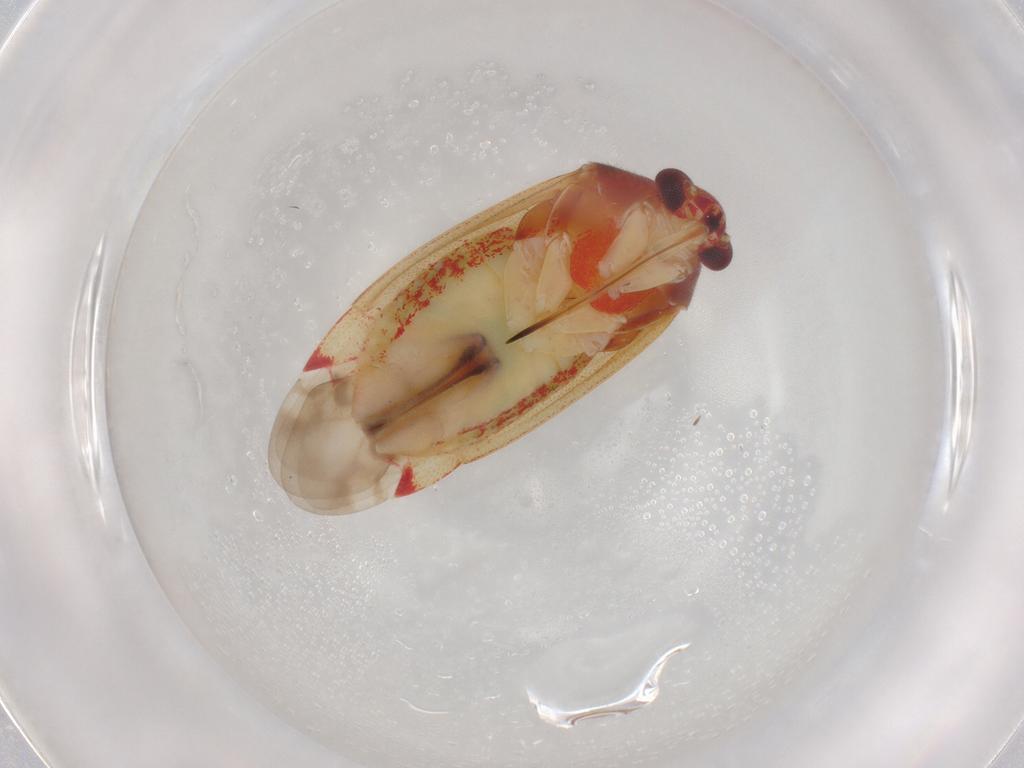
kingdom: Animalia
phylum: Arthropoda
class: Insecta
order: Hemiptera
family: Miridae
